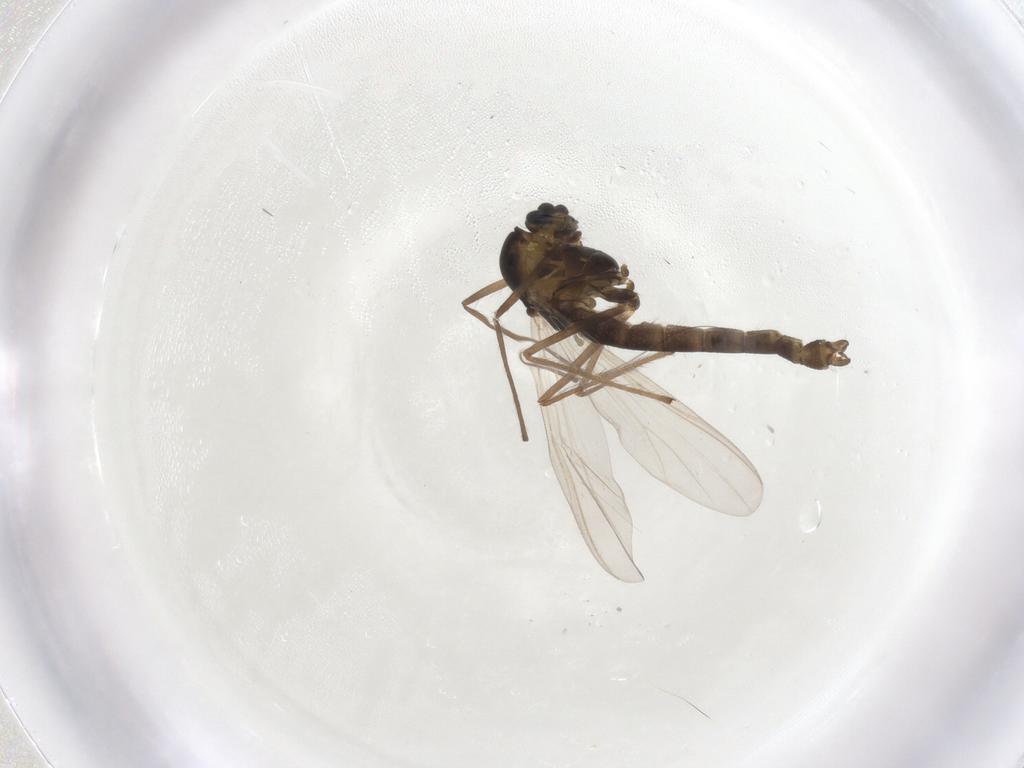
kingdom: Animalia
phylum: Arthropoda
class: Insecta
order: Diptera
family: Chironomidae
